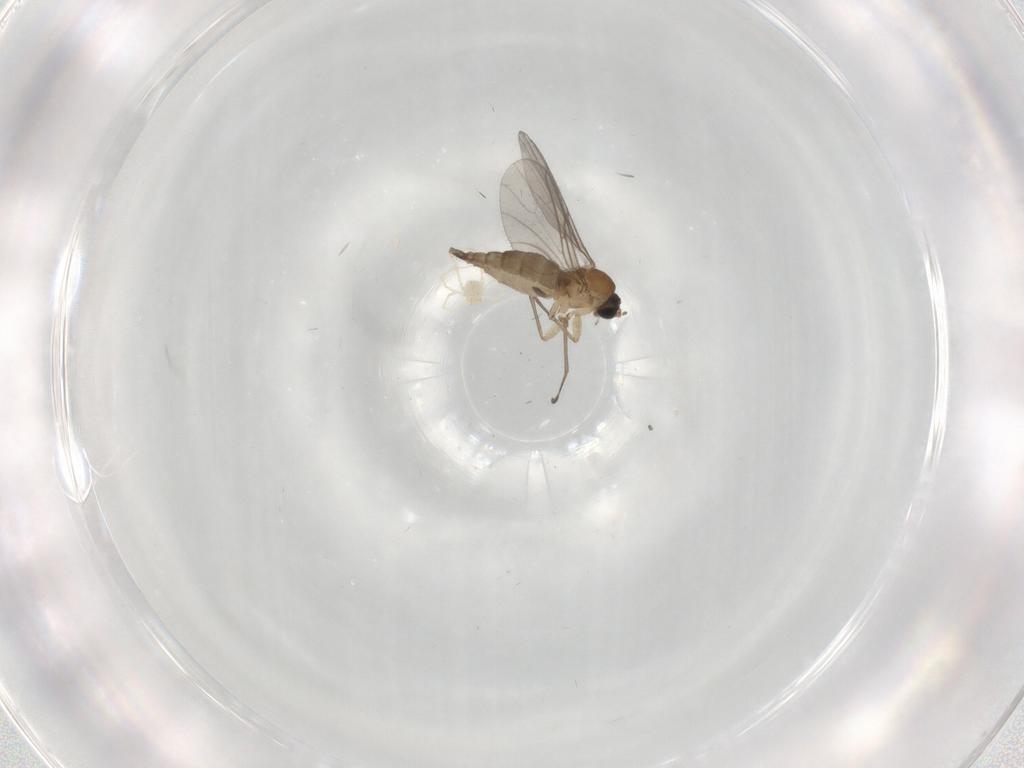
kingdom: Animalia
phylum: Arthropoda
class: Insecta
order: Diptera
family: Sciaridae
